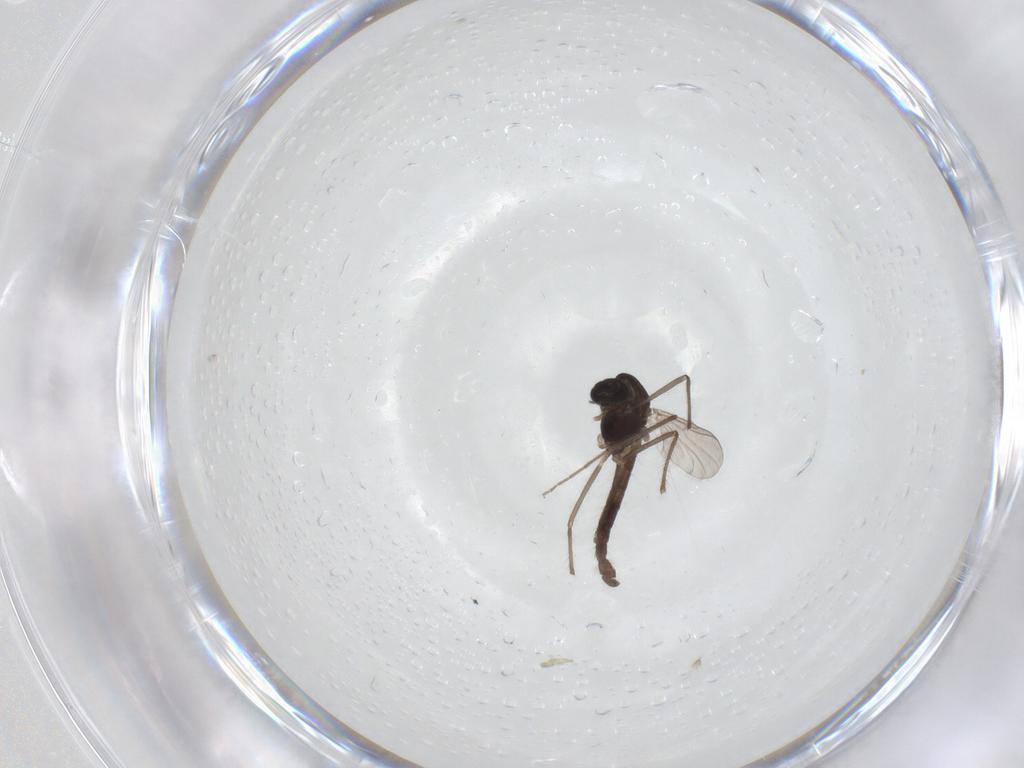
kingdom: Animalia
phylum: Arthropoda
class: Insecta
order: Diptera
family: Chironomidae
